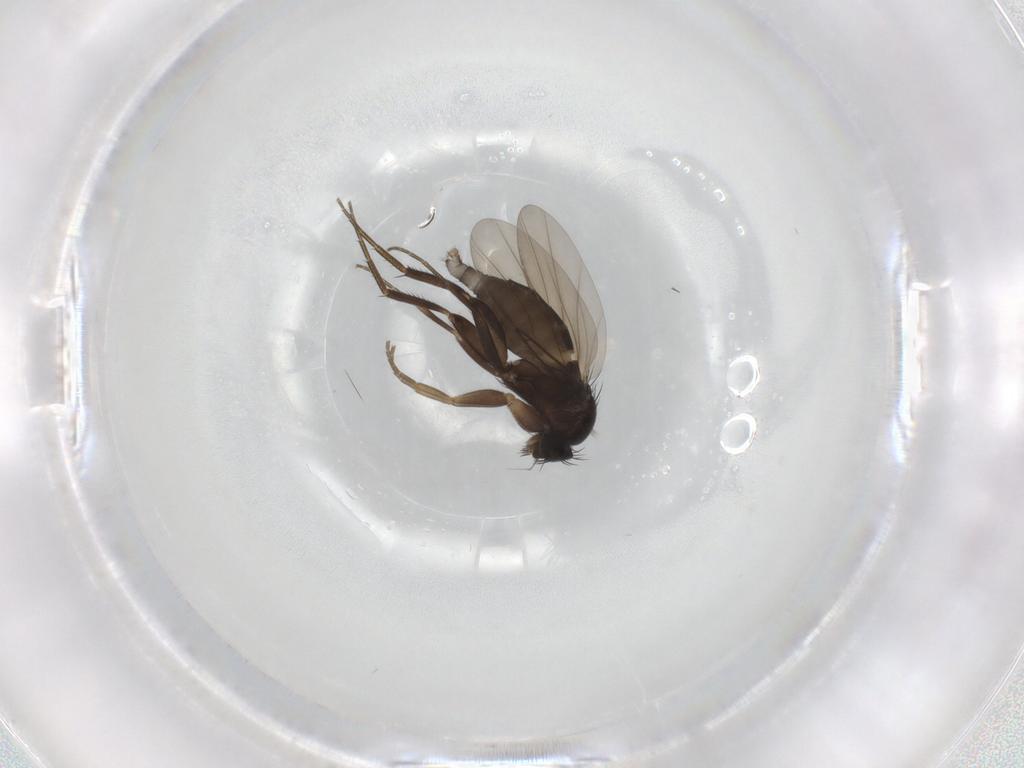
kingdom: Animalia
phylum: Arthropoda
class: Insecta
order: Diptera
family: Phoridae
